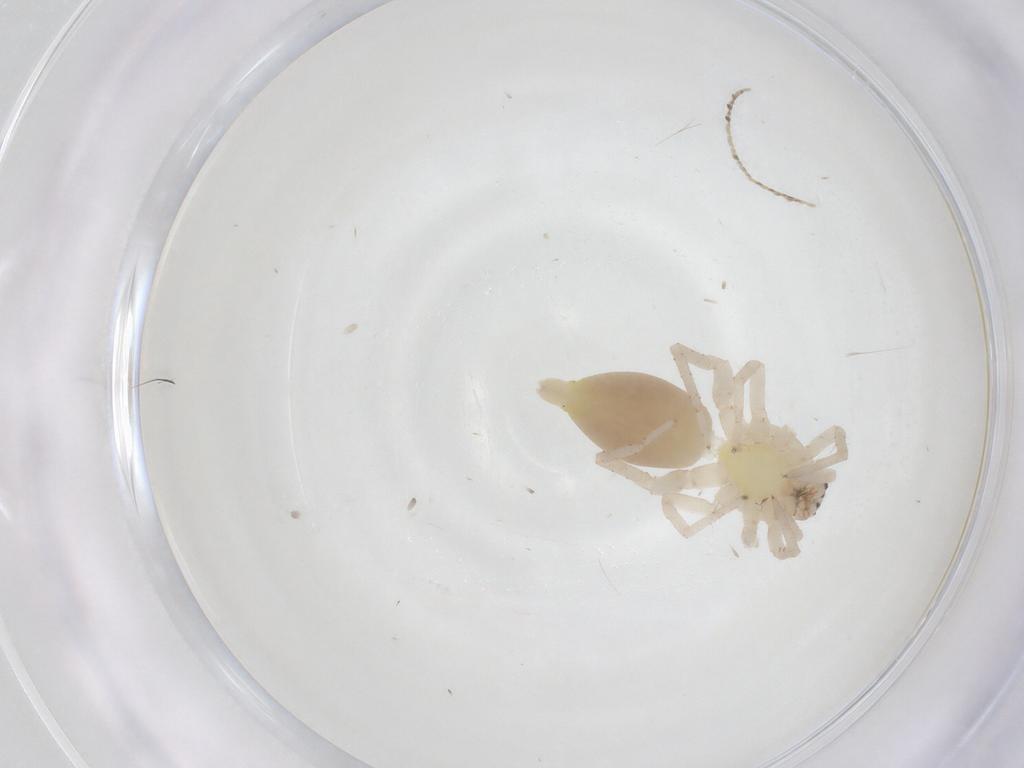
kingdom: Animalia
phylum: Arthropoda
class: Arachnida
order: Araneae
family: Clubionidae
